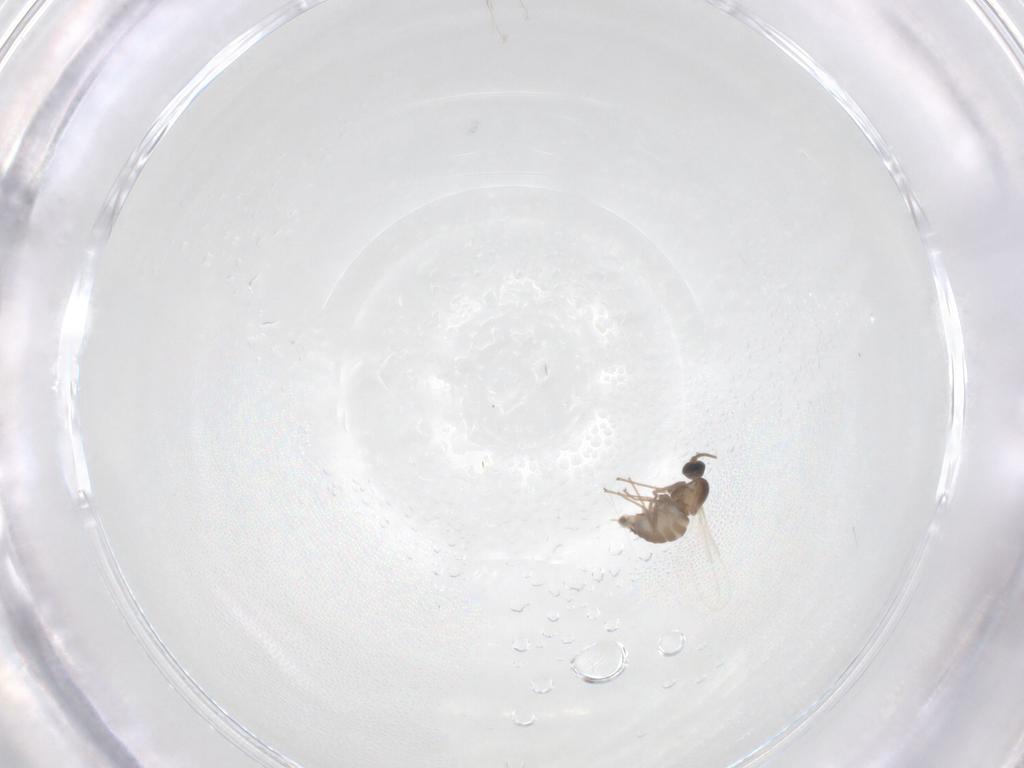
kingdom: Animalia
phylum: Arthropoda
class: Insecta
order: Diptera
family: Cecidomyiidae
